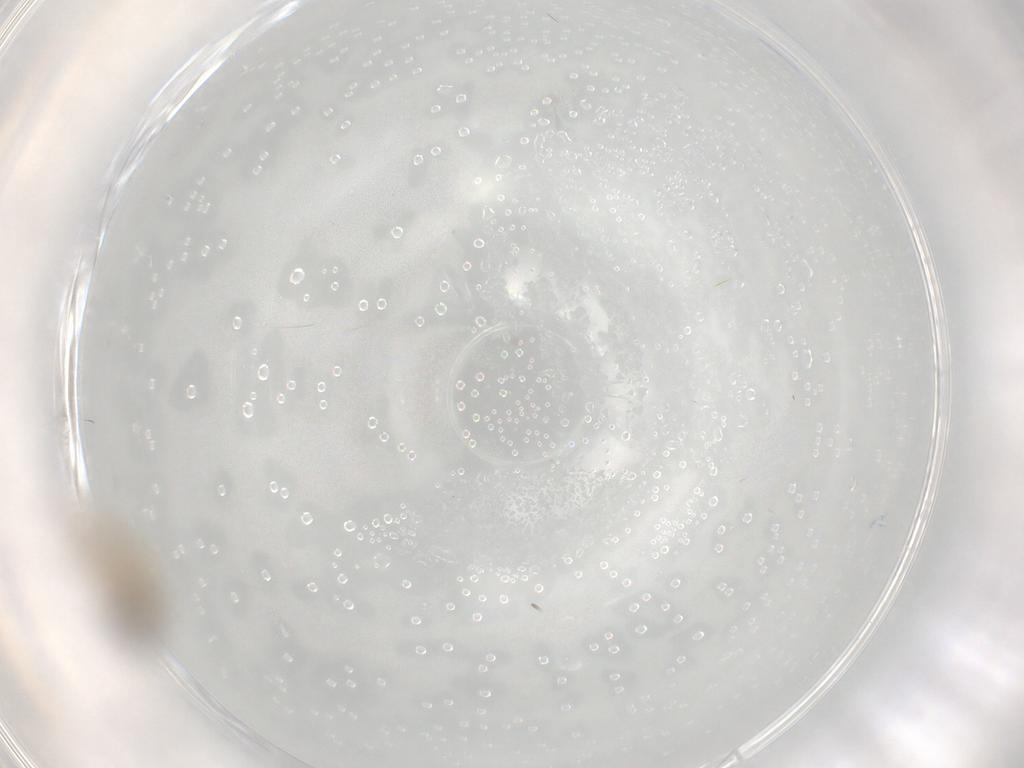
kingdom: Animalia
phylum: Arthropoda
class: Insecta
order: Diptera
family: Sciaridae
